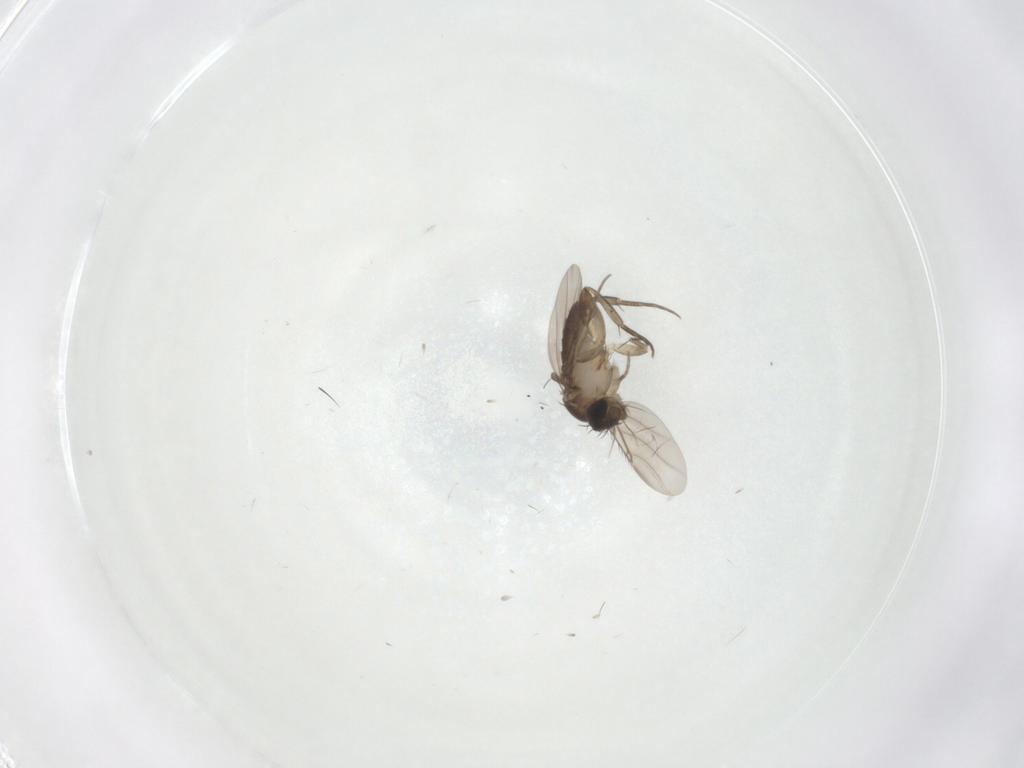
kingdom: Animalia
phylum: Arthropoda
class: Insecta
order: Diptera
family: Phoridae
